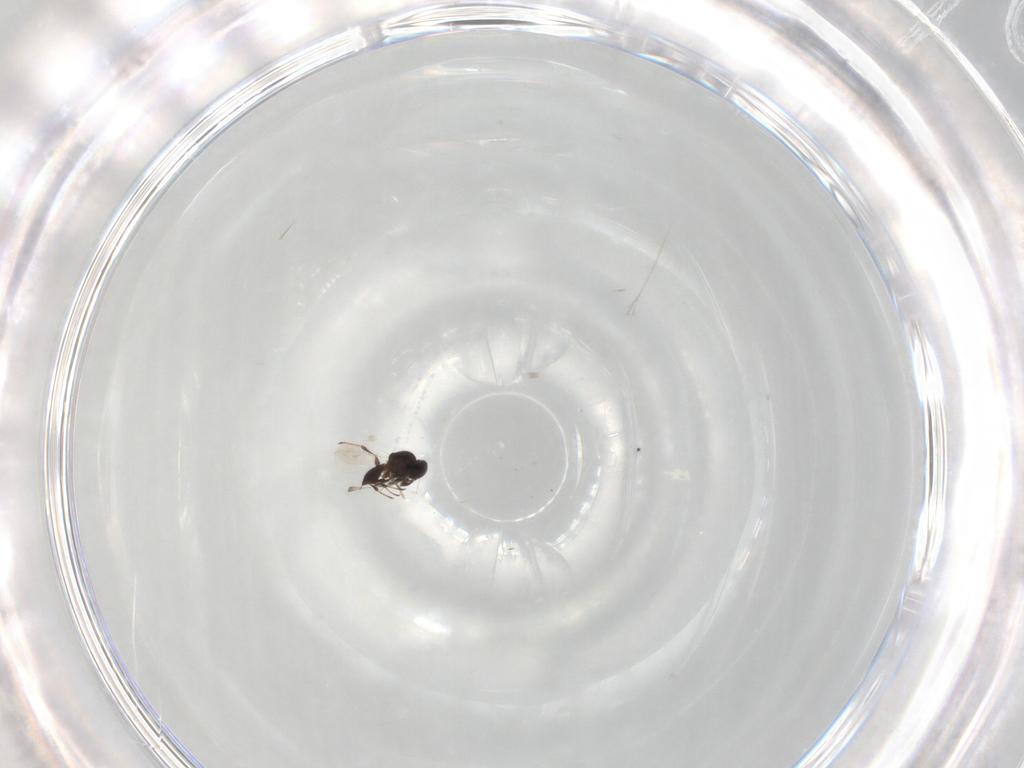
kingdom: Animalia
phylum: Arthropoda
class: Insecta
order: Hymenoptera
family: Platygastridae
